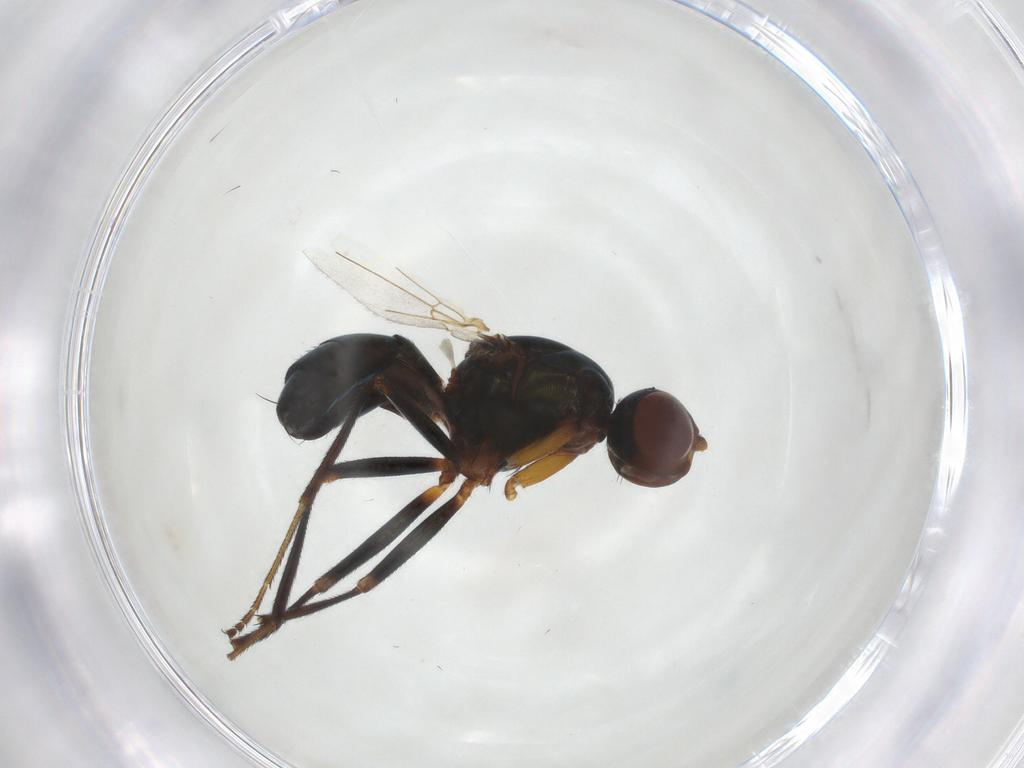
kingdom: Animalia
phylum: Arthropoda
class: Insecta
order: Diptera
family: Sepsidae
